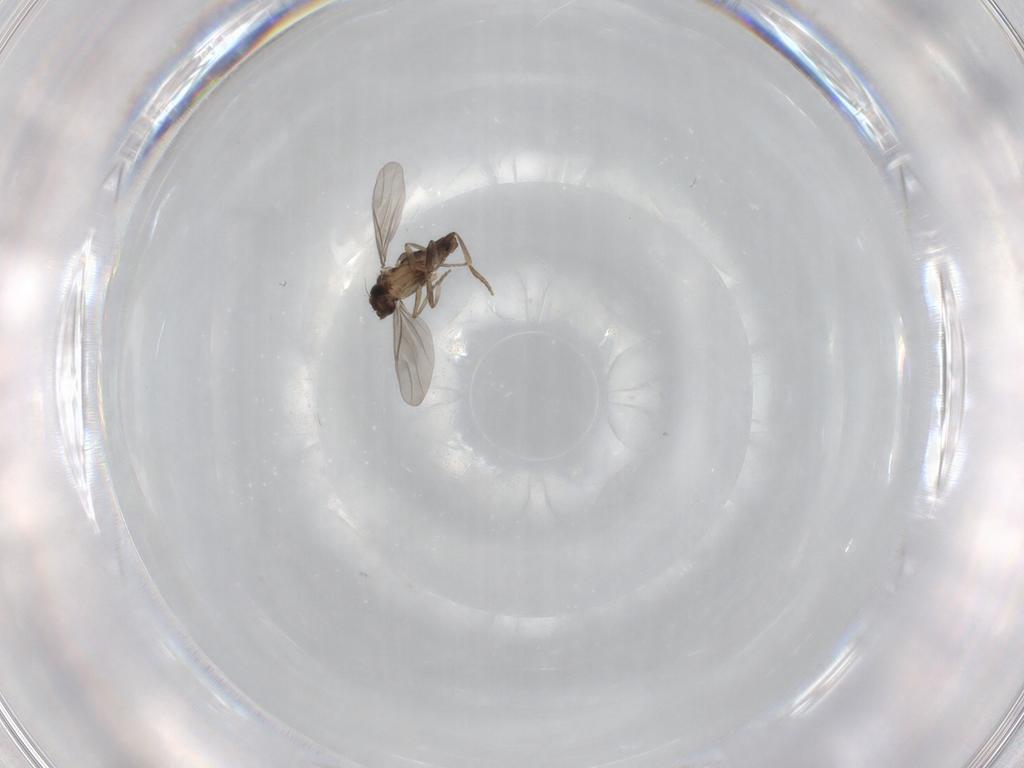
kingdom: Animalia
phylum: Arthropoda
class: Insecta
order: Diptera
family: Phoridae
